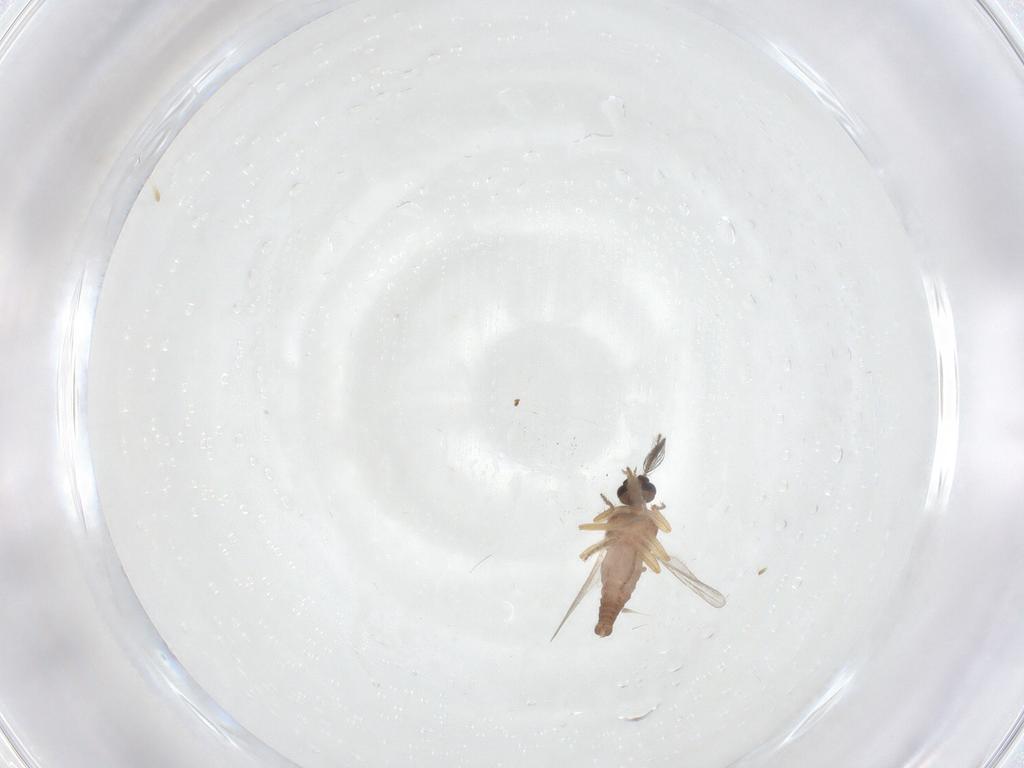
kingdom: Animalia
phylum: Arthropoda
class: Insecta
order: Diptera
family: Ceratopogonidae
